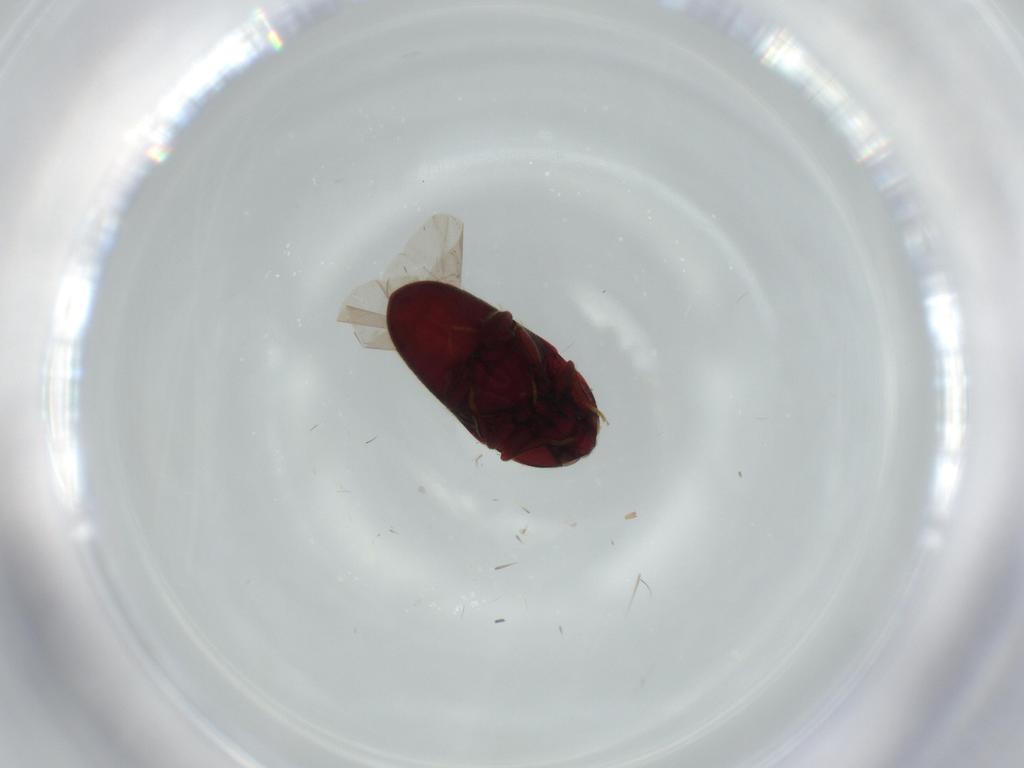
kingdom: Animalia
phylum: Arthropoda
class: Insecta
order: Coleoptera
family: Throscidae
